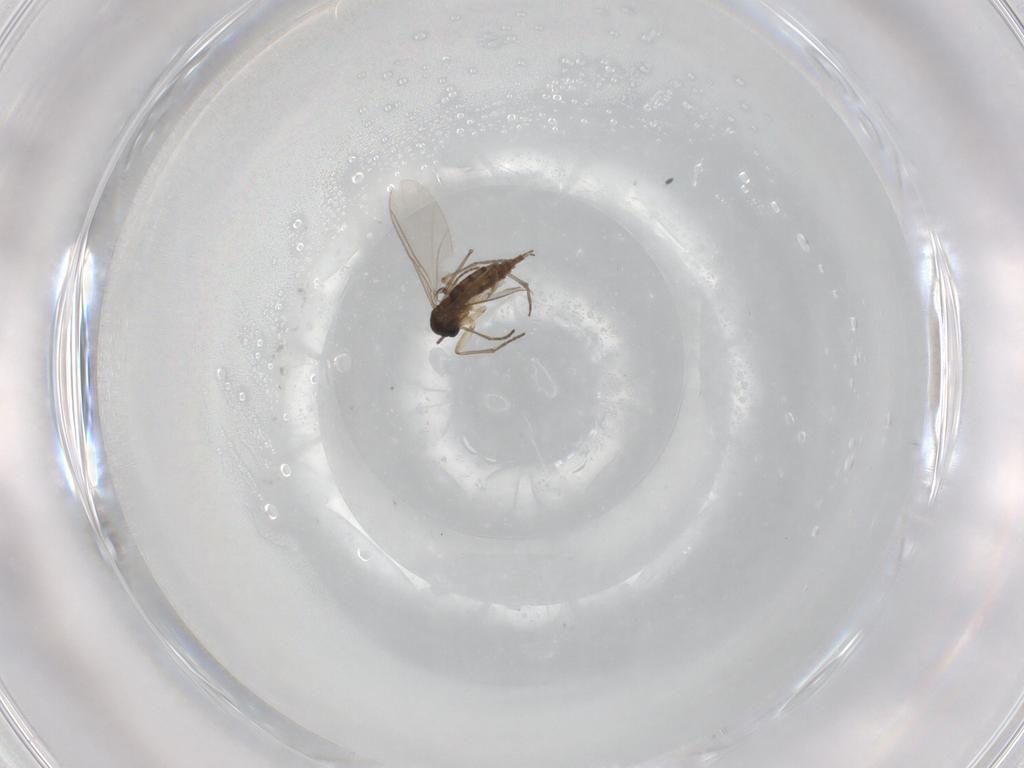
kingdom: Animalia
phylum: Arthropoda
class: Insecta
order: Diptera
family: Sciaridae
